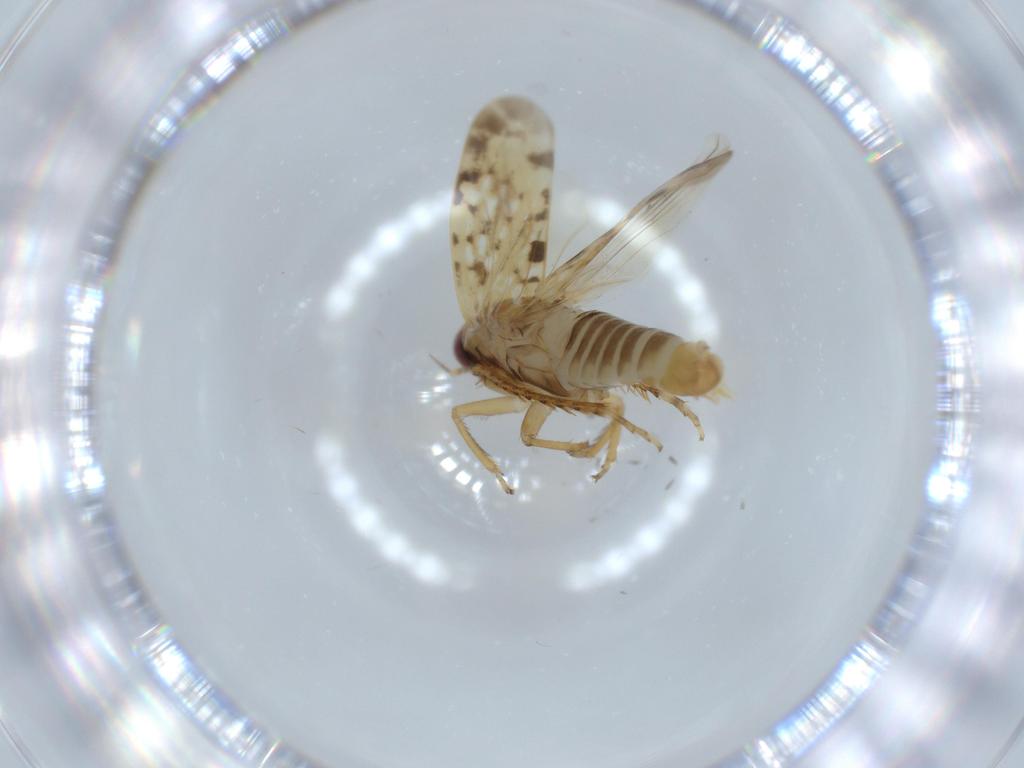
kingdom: Animalia
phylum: Arthropoda
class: Insecta
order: Hemiptera
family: Cicadellidae
